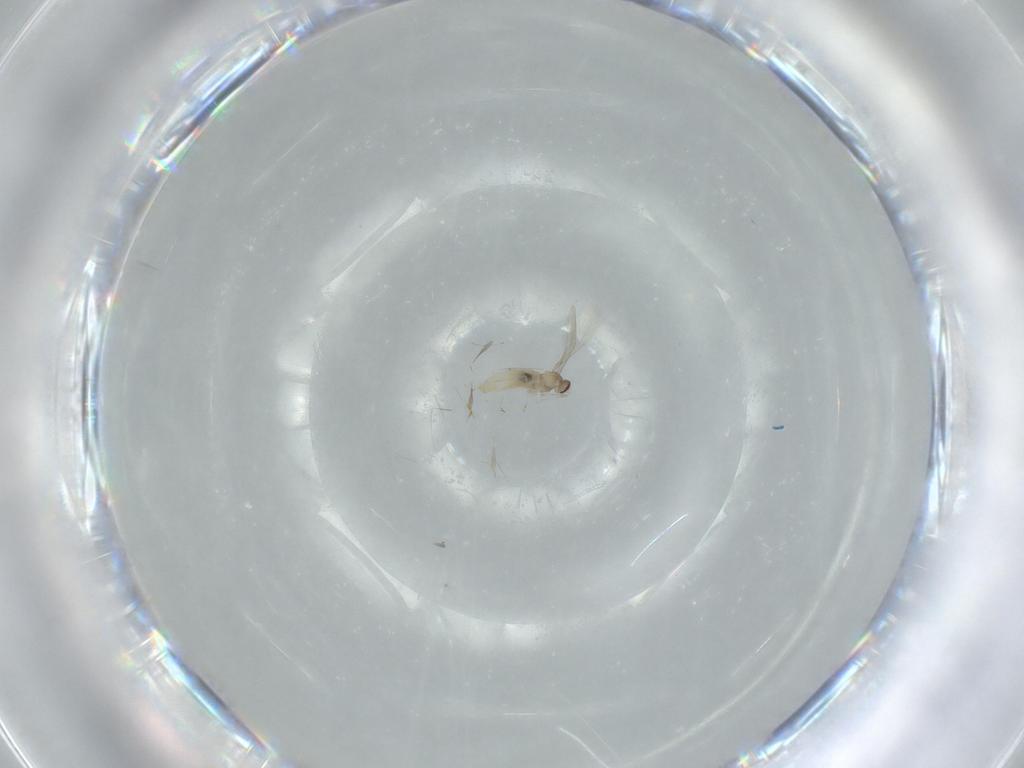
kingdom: Animalia
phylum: Arthropoda
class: Insecta
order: Diptera
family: Cecidomyiidae
